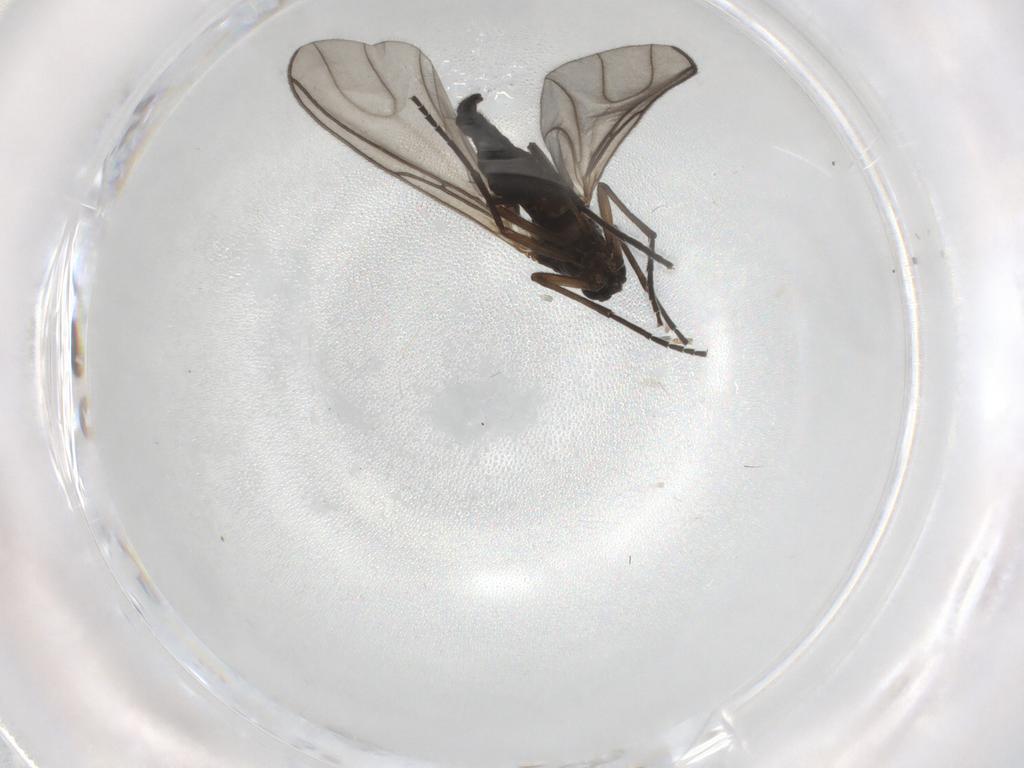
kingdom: Animalia
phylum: Arthropoda
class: Insecta
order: Diptera
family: Sciaridae
